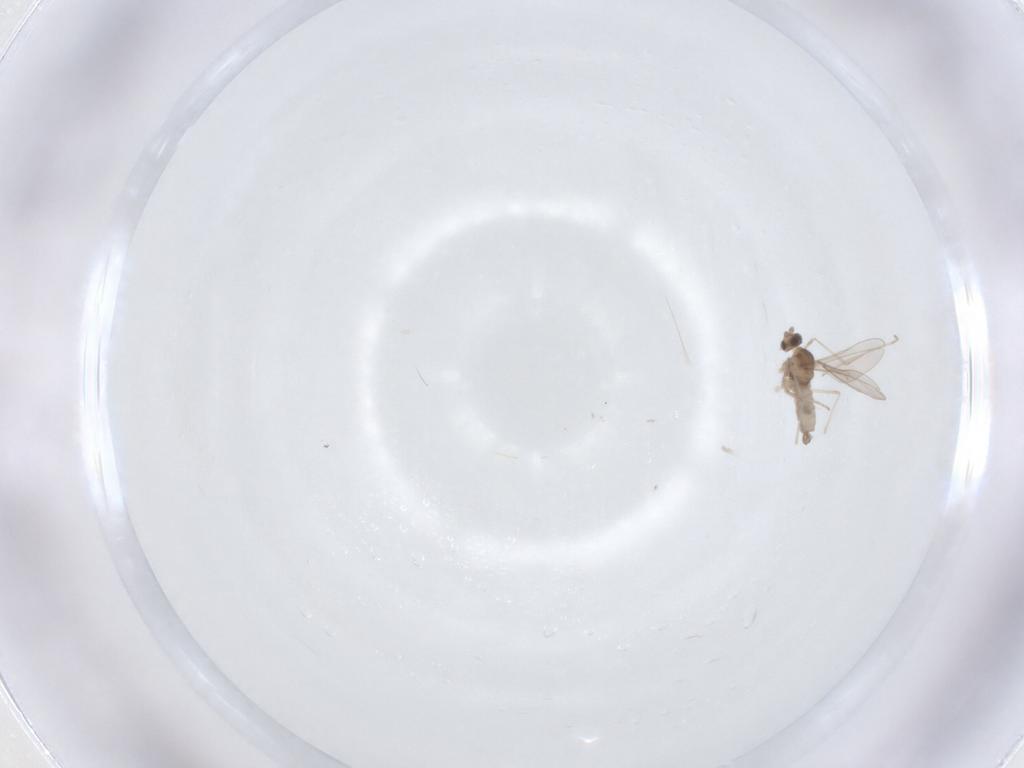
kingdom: Animalia
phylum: Arthropoda
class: Insecta
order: Diptera
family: Cecidomyiidae
